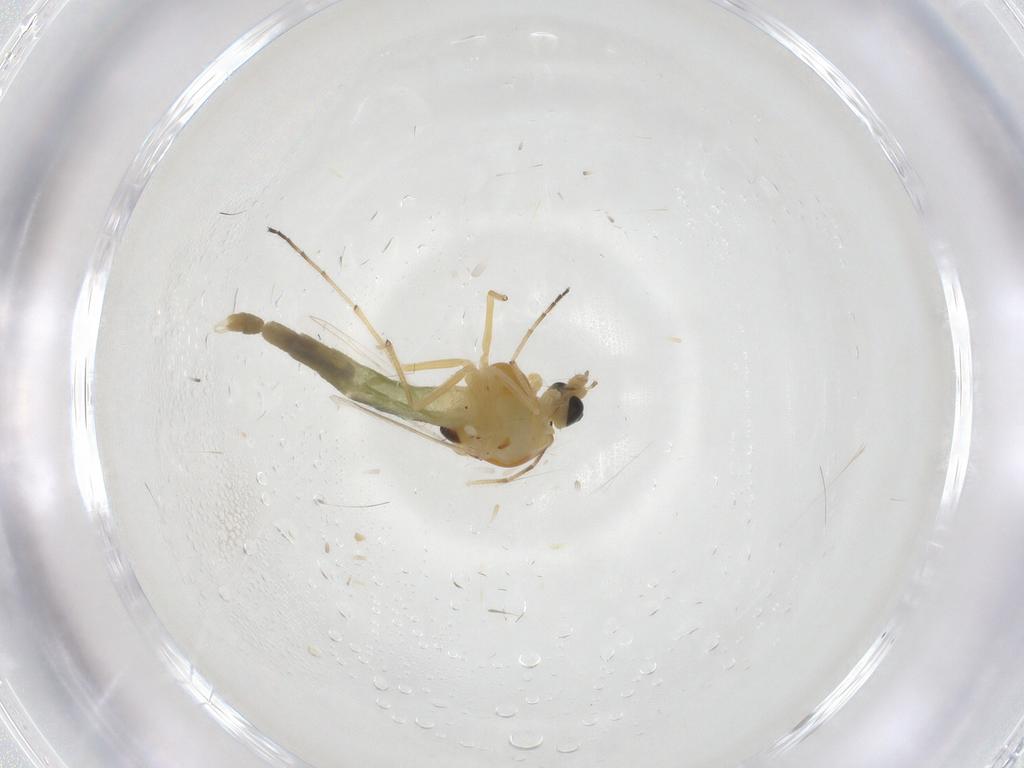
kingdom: Animalia
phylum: Arthropoda
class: Insecta
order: Diptera
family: Chironomidae
